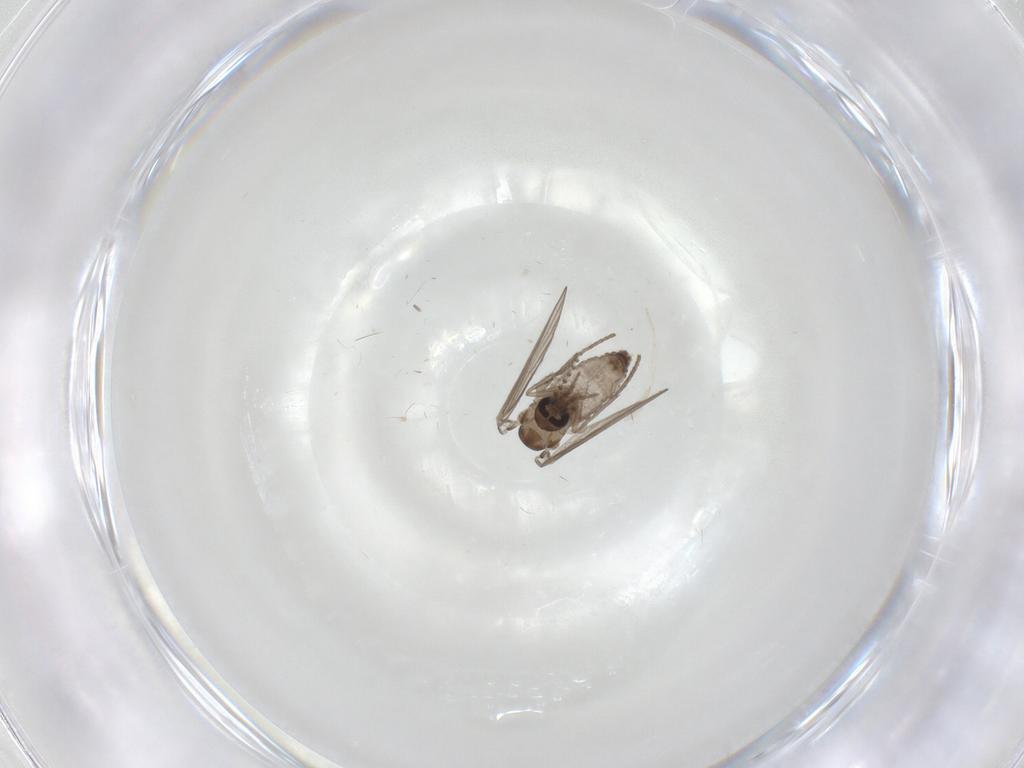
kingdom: Animalia
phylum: Arthropoda
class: Insecta
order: Diptera
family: Psychodidae
